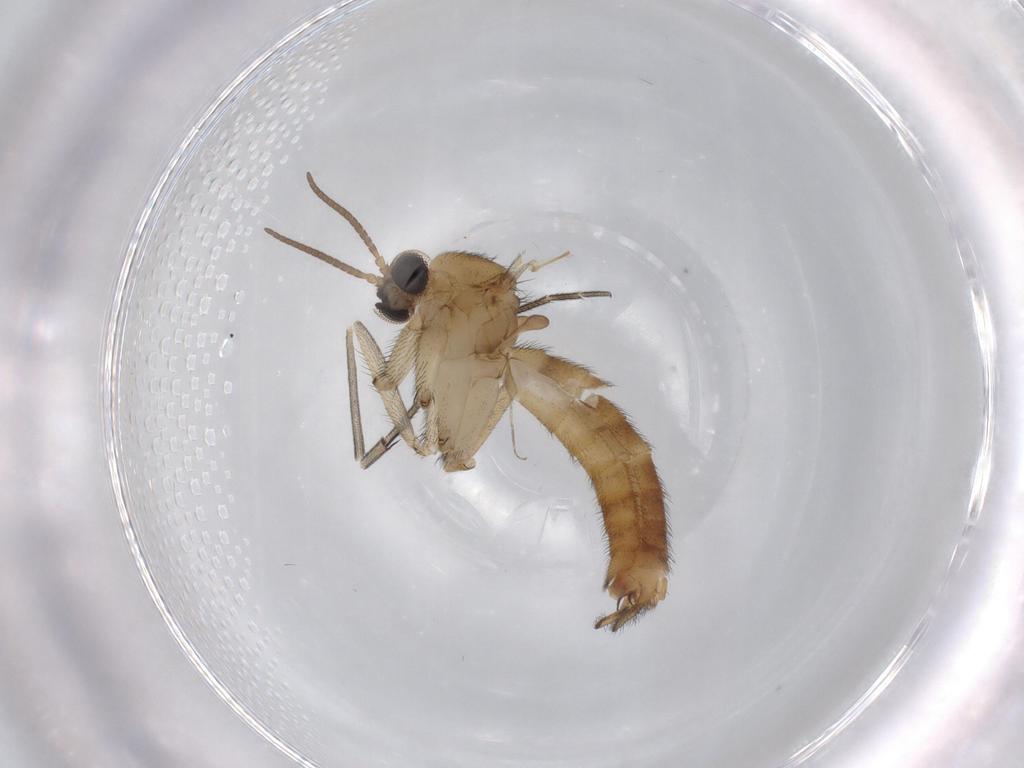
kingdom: Animalia
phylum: Arthropoda
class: Insecta
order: Diptera
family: Keroplatidae
